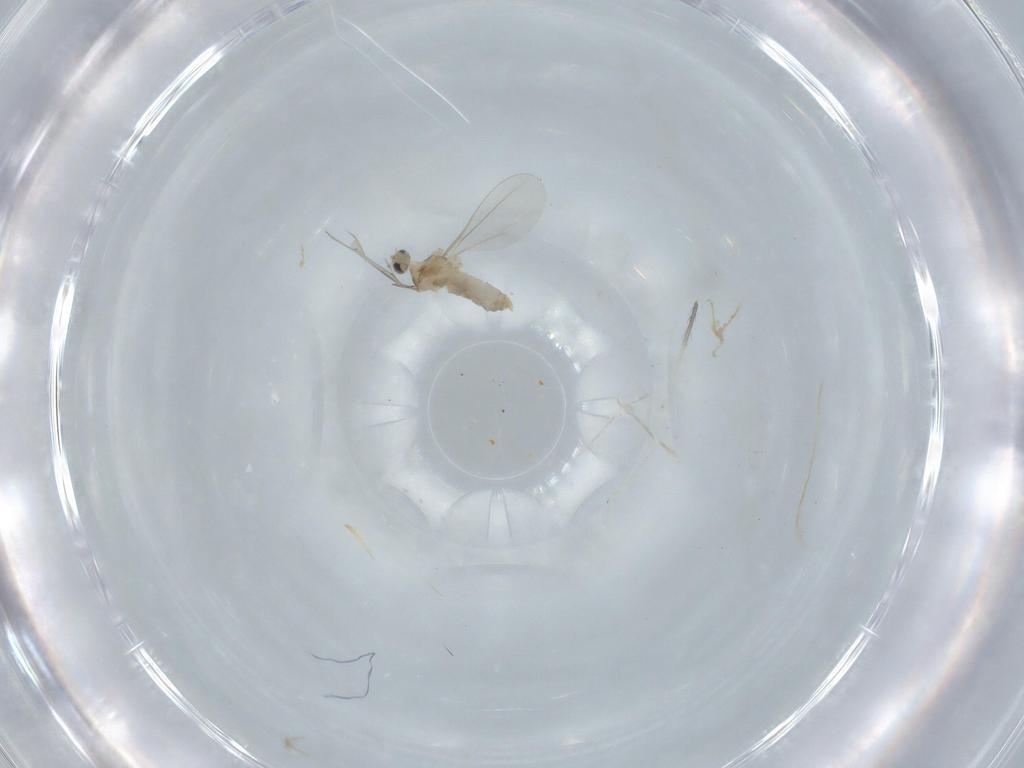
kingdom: Animalia
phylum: Arthropoda
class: Insecta
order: Diptera
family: Cecidomyiidae
